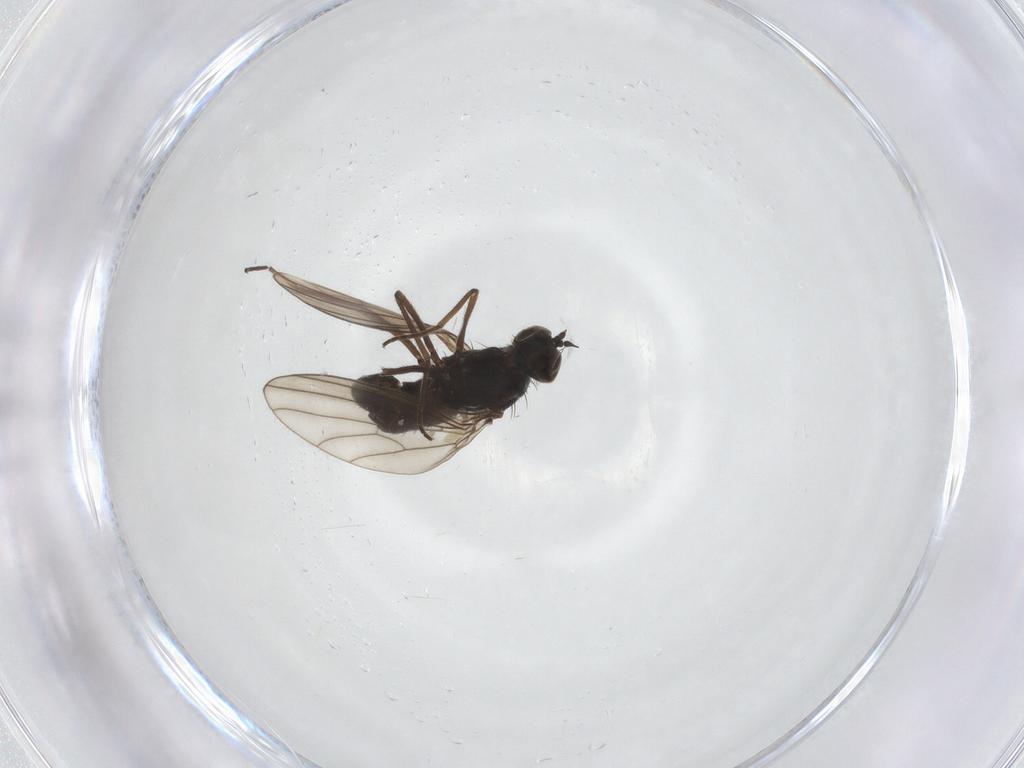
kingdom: Animalia
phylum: Arthropoda
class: Insecta
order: Diptera
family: Dolichopodidae
